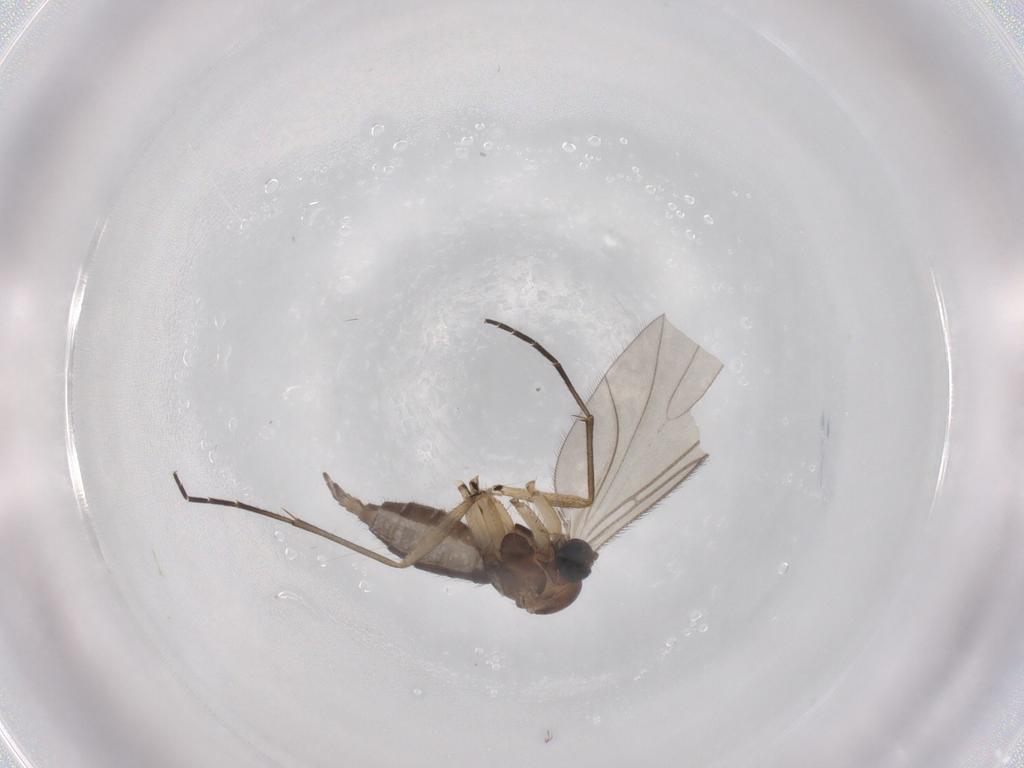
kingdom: Animalia
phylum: Arthropoda
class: Insecta
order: Diptera
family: Sciaridae
